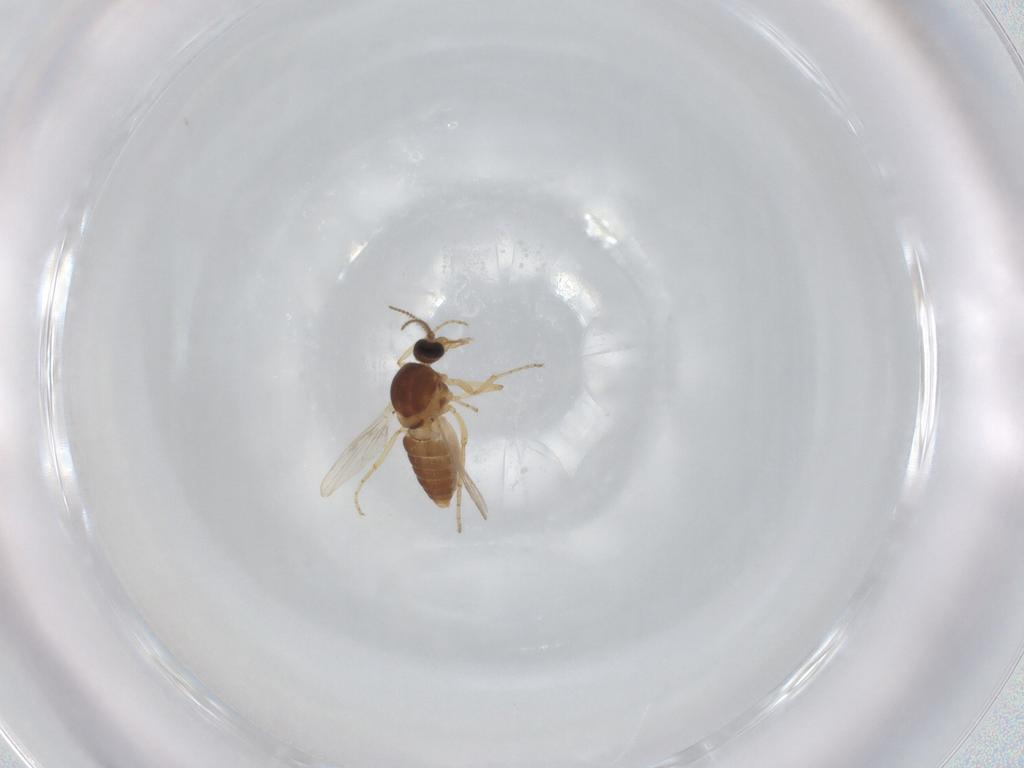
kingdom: Animalia
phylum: Arthropoda
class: Insecta
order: Diptera
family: Ceratopogonidae
